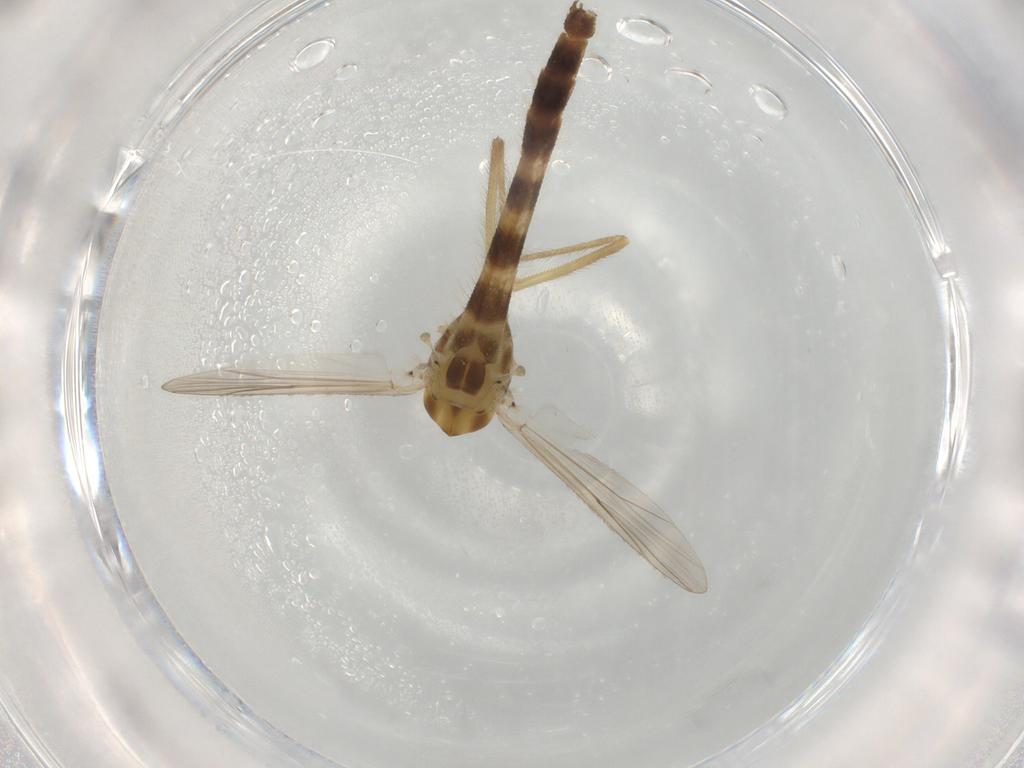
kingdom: Animalia
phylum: Arthropoda
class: Insecta
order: Diptera
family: Chironomidae
